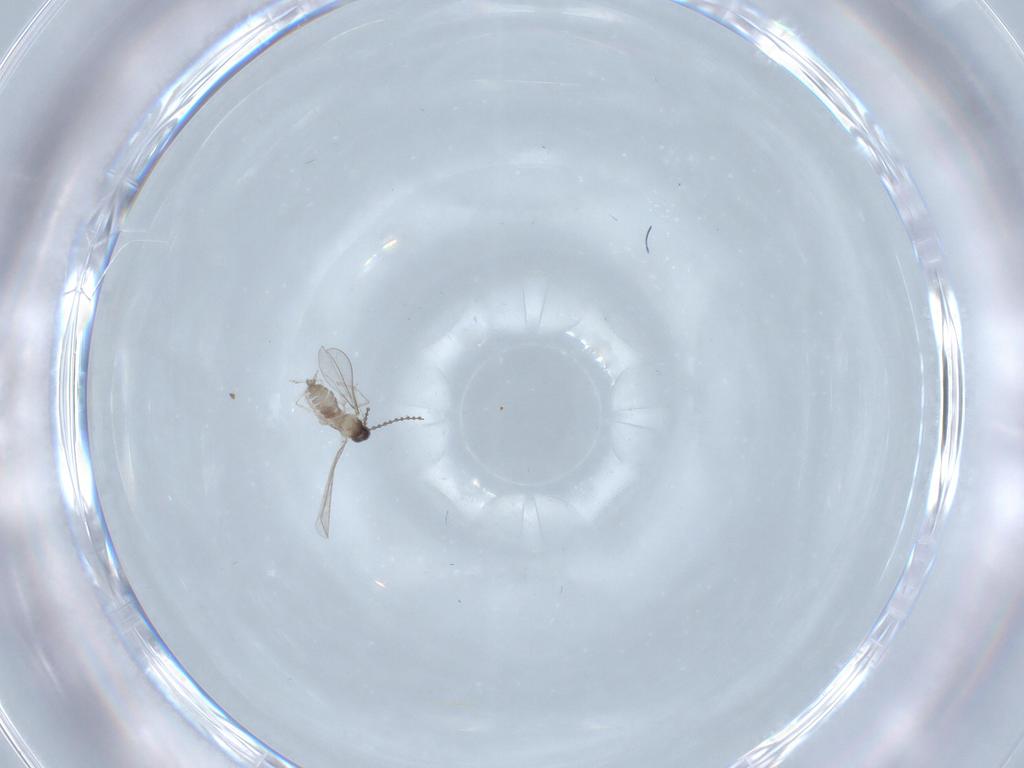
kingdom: Animalia
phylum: Arthropoda
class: Insecta
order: Diptera
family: Cecidomyiidae
